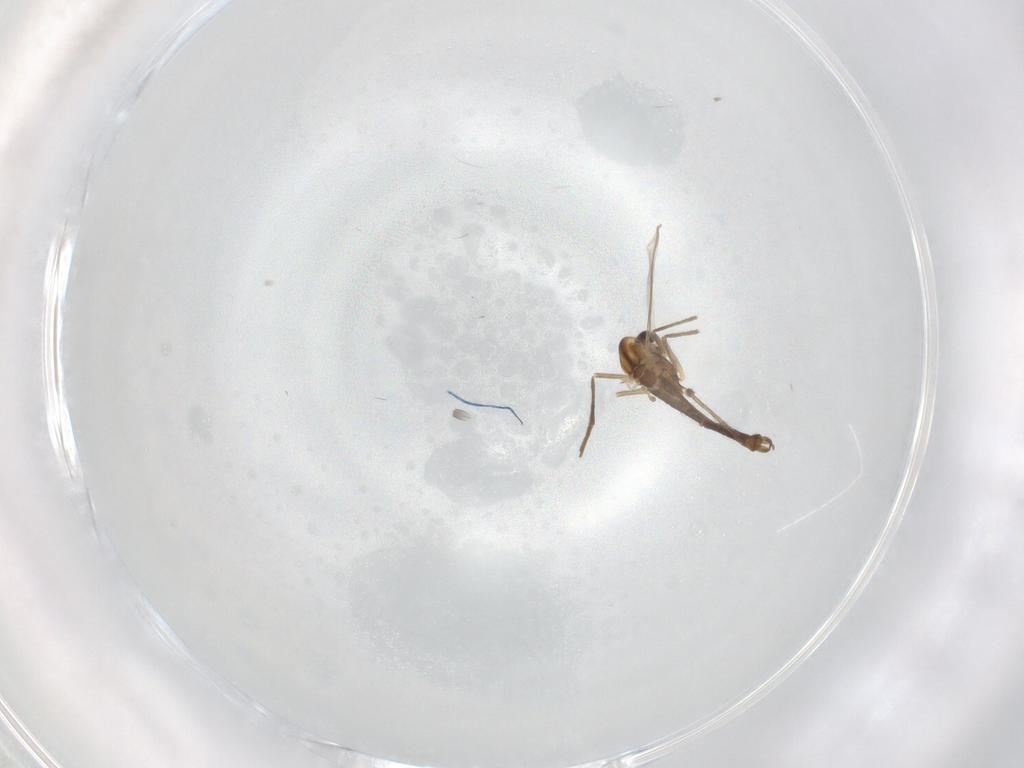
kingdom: Animalia
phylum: Arthropoda
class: Insecta
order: Diptera
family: Chironomidae
